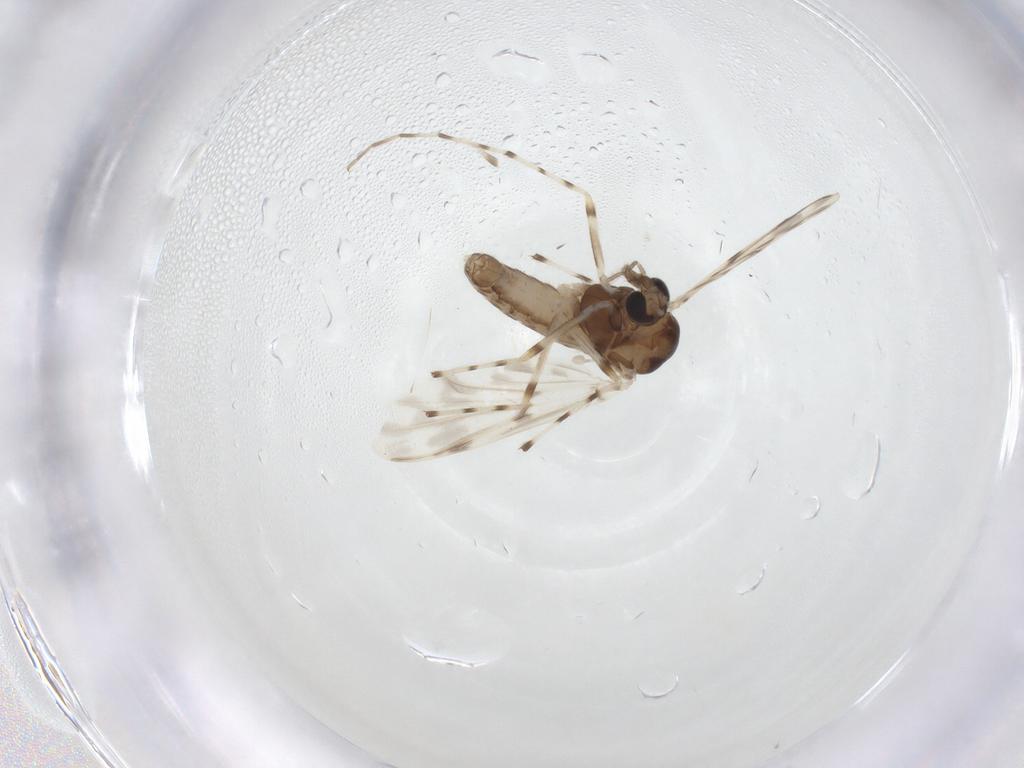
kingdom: Animalia
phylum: Arthropoda
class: Insecta
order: Diptera
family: Chironomidae
